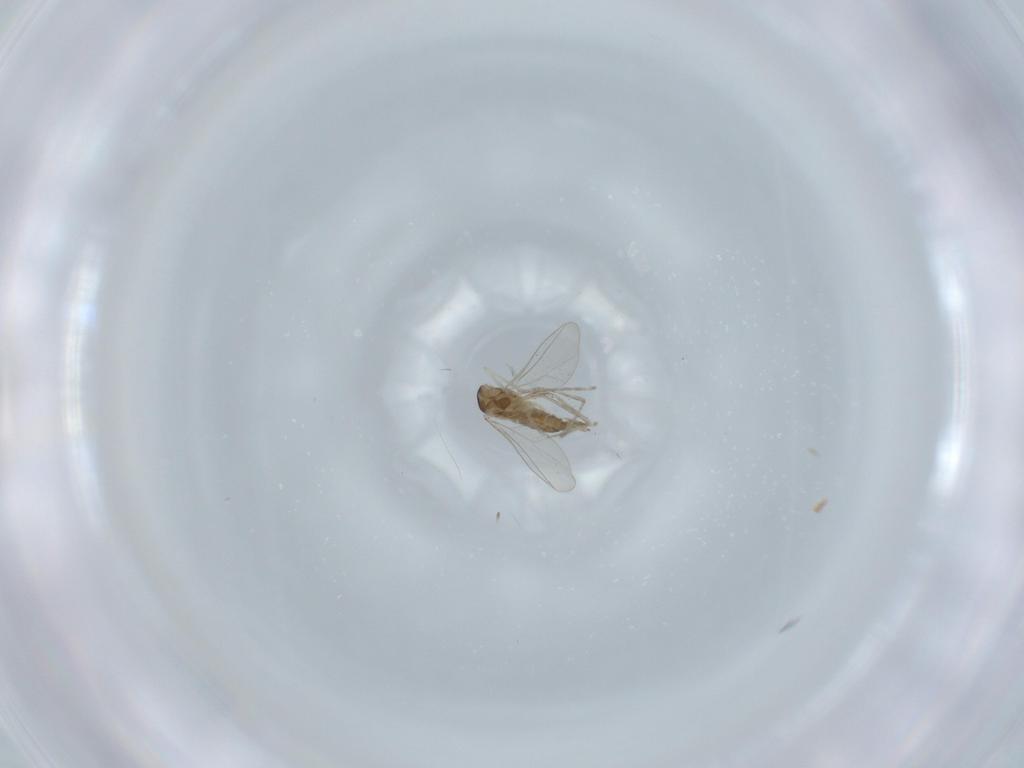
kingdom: Animalia
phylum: Arthropoda
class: Insecta
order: Diptera
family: Cecidomyiidae
